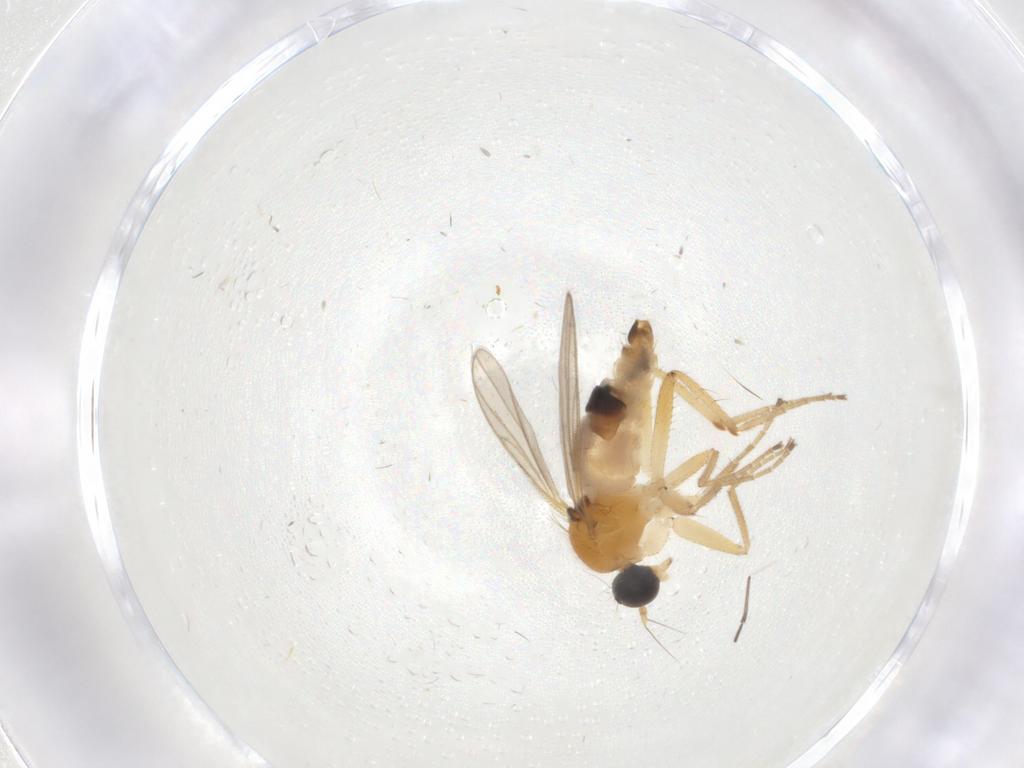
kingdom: Animalia
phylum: Arthropoda
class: Insecta
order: Diptera
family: Hybotidae
